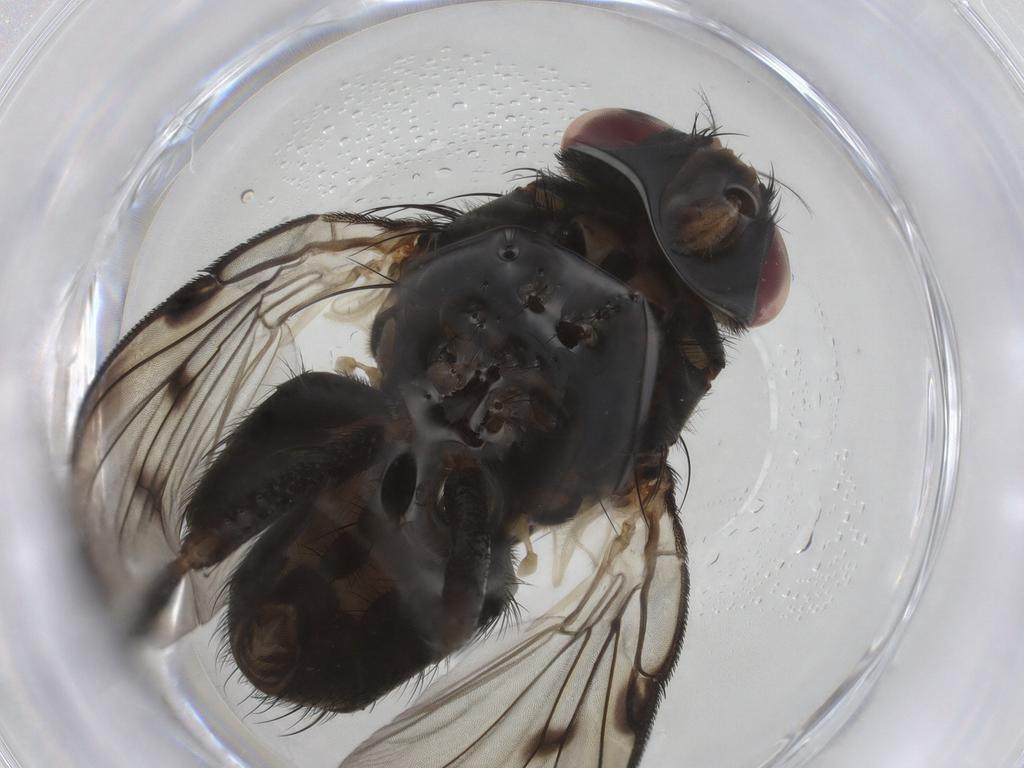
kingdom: Animalia
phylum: Arthropoda
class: Insecta
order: Diptera
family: Muscidae
